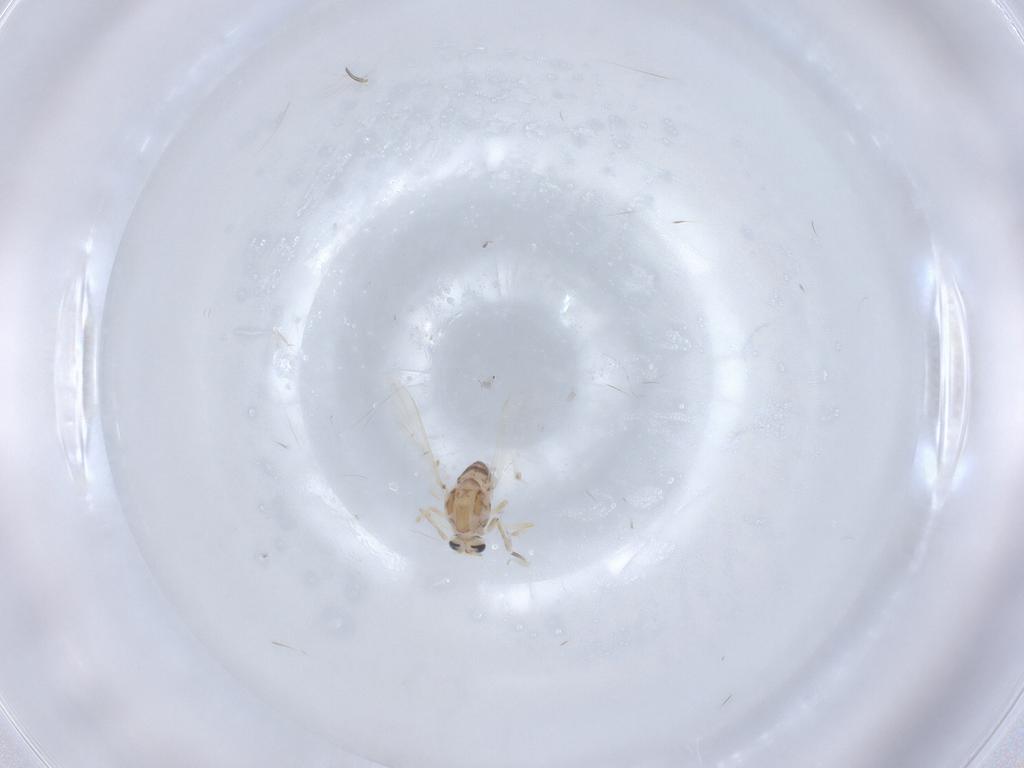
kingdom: Animalia
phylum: Arthropoda
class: Insecta
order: Diptera
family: Chironomidae
